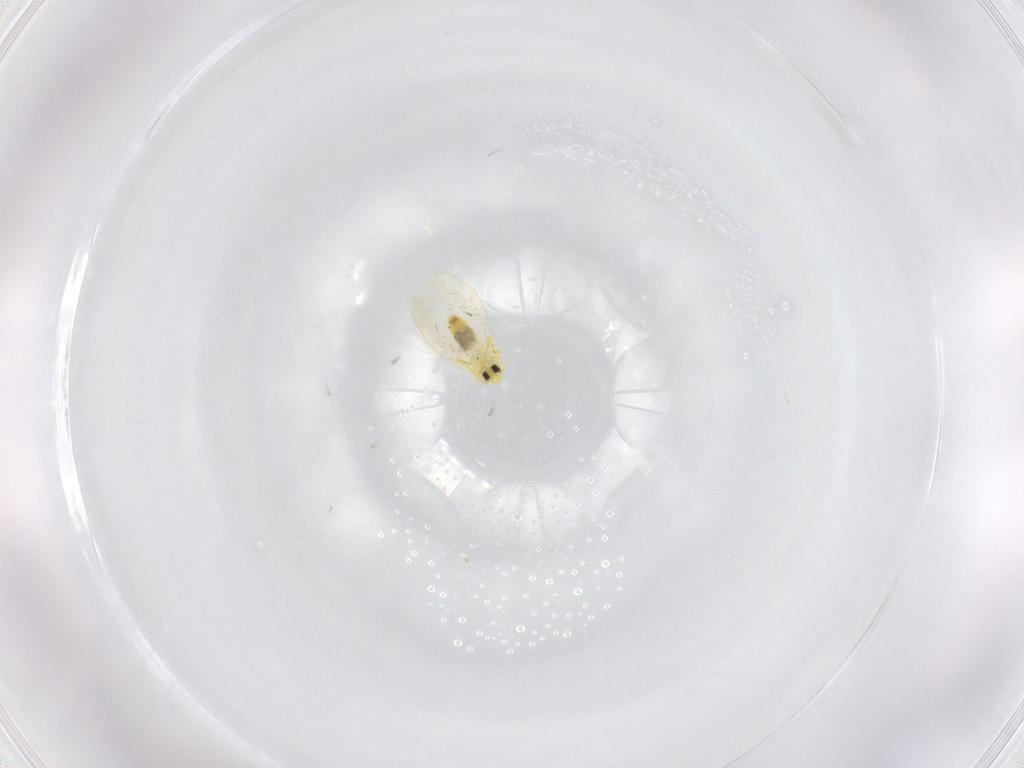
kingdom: Animalia
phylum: Arthropoda
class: Insecta
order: Hemiptera
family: Aleyrodidae
